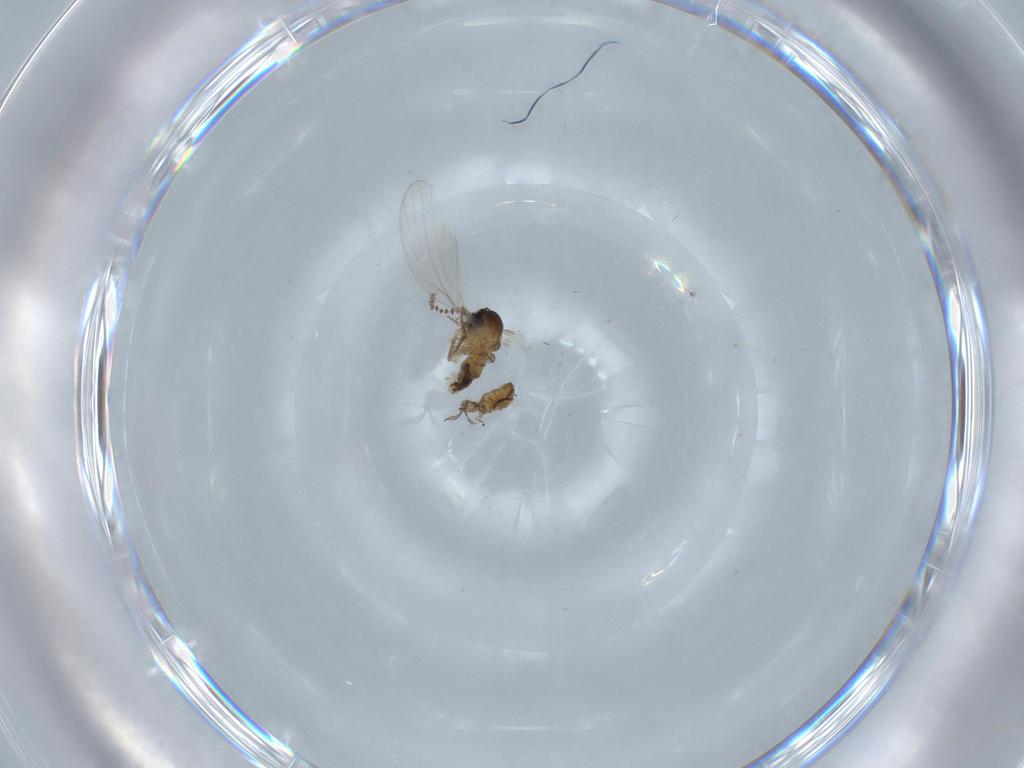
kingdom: Animalia
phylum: Arthropoda
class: Insecta
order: Diptera
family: Psychodidae
